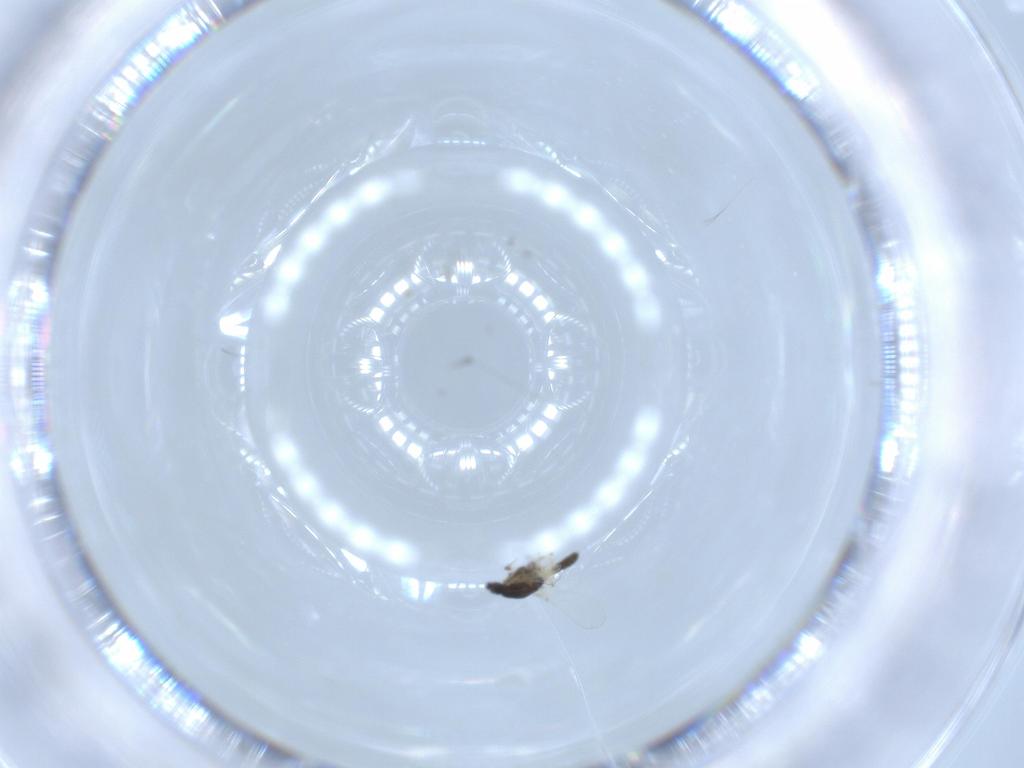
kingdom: Animalia
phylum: Arthropoda
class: Insecta
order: Diptera
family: Chironomidae
